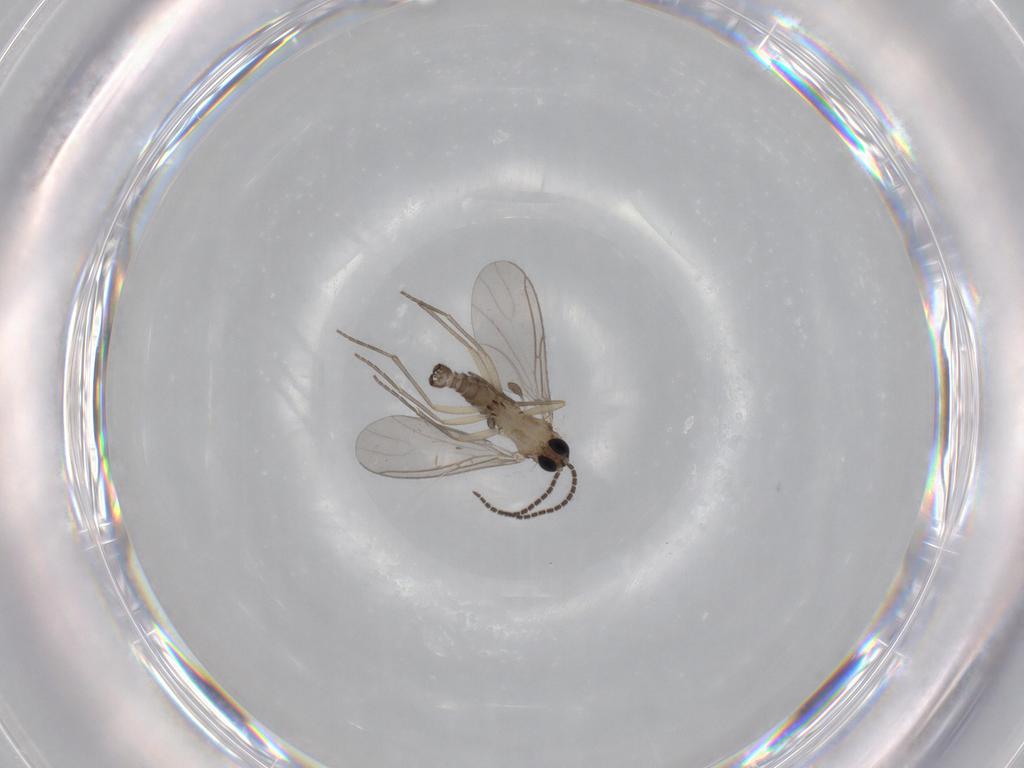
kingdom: Animalia
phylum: Arthropoda
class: Insecta
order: Diptera
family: Sciaridae
